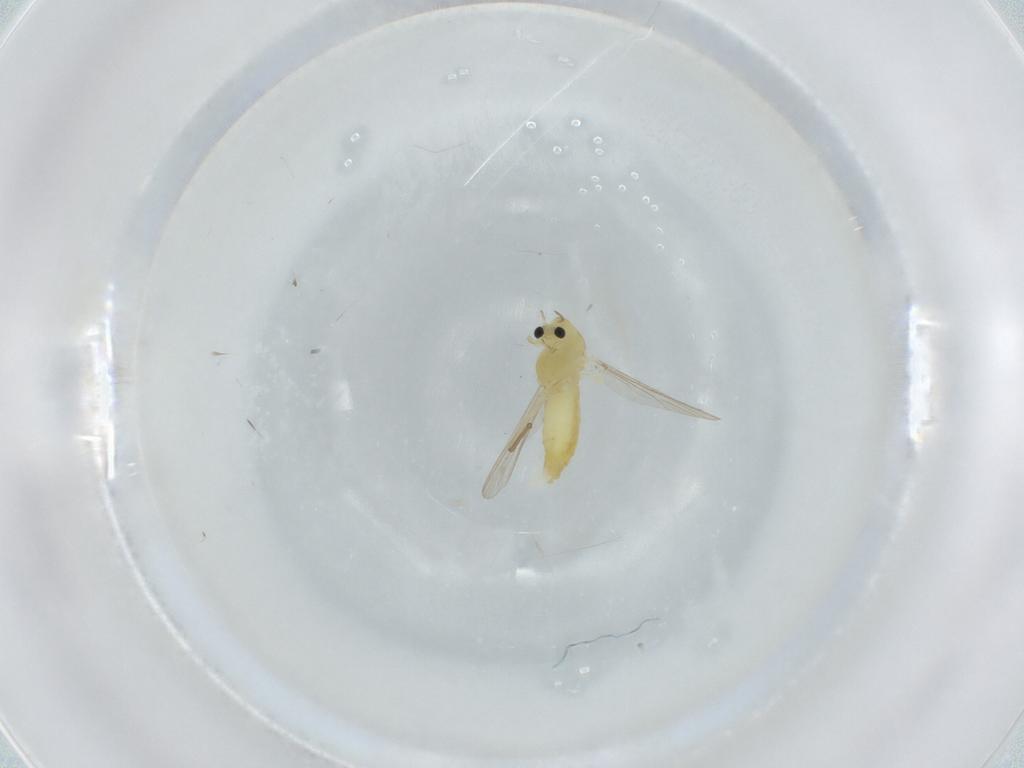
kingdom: Animalia
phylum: Arthropoda
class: Insecta
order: Diptera
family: Chironomidae
